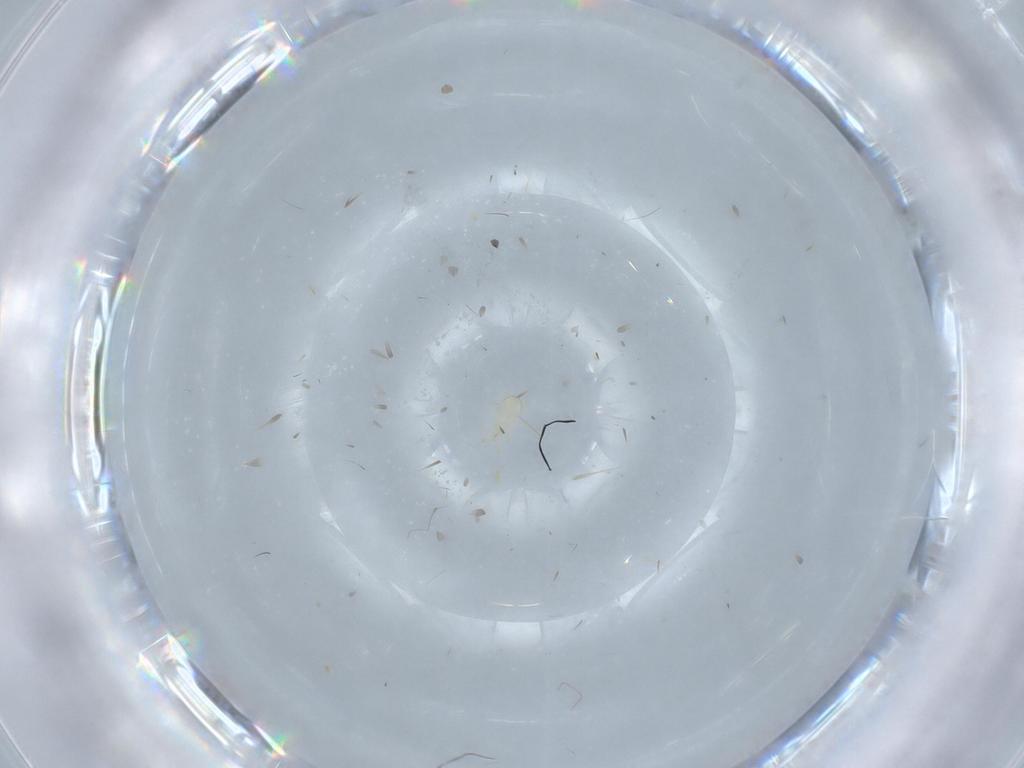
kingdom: Animalia
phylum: Arthropoda
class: Arachnida
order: Mesostigmata
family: Phytoseiidae
